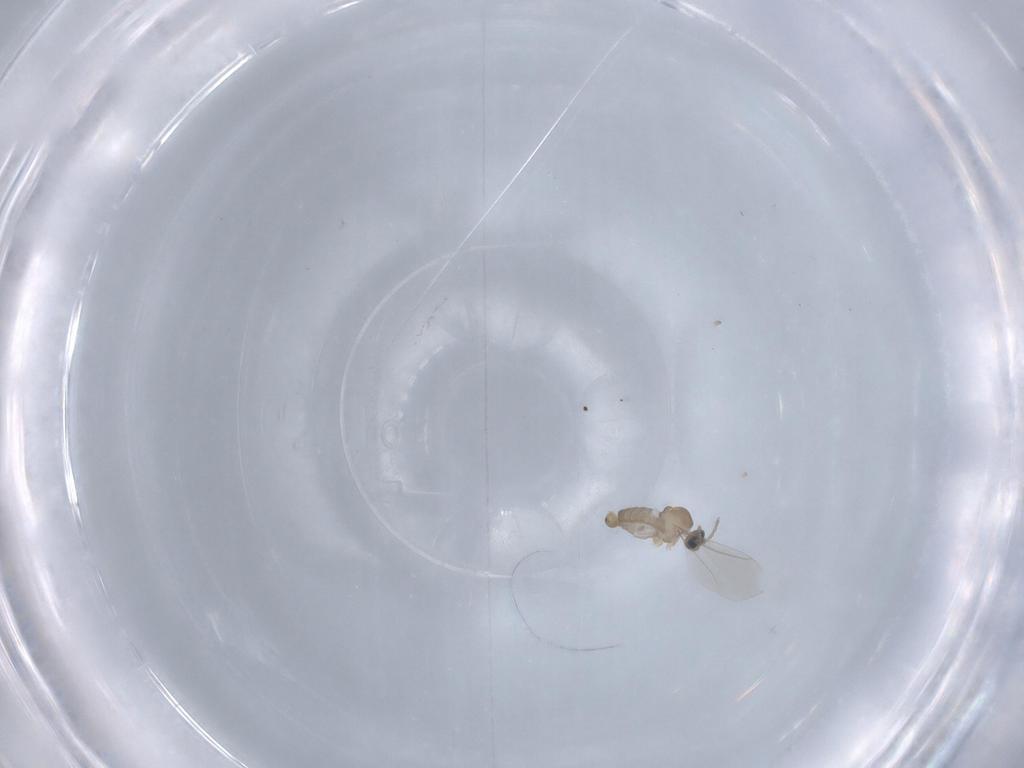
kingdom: Animalia
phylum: Arthropoda
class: Insecta
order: Diptera
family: Cecidomyiidae
